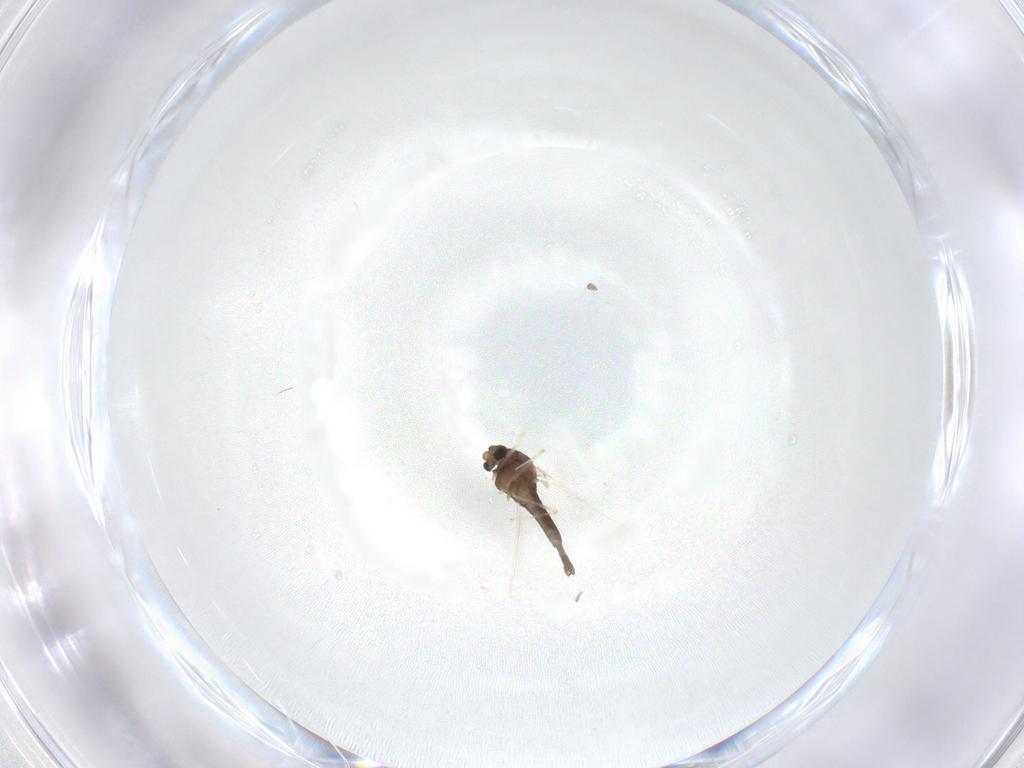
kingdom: Animalia
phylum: Arthropoda
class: Insecta
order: Diptera
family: Chironomidae
